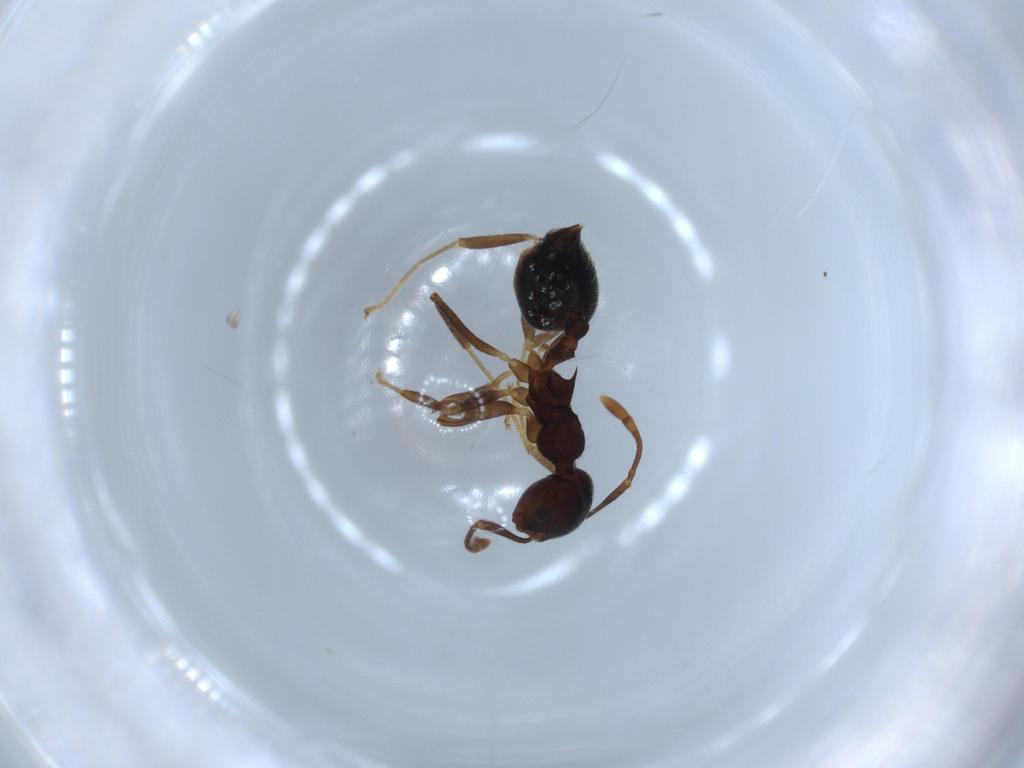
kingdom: Animalia
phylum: Arthropoda
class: Insecta
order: Hymenoptera
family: Formicidae
